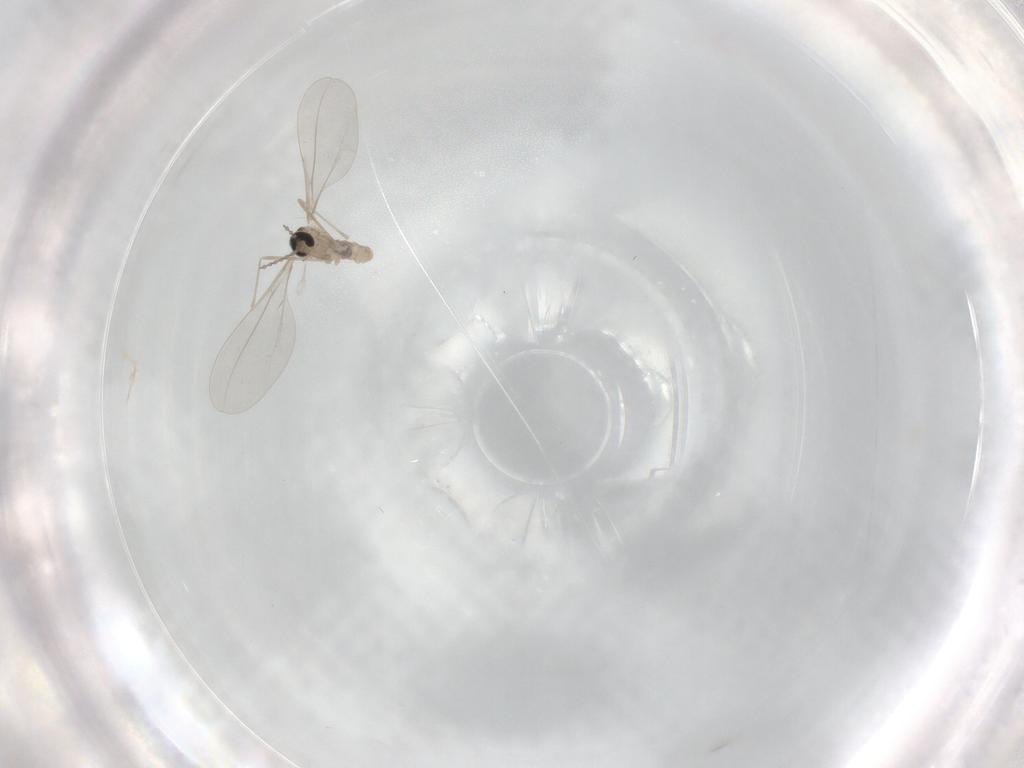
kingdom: Animalia
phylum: Arthropoda
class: Insecta
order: Diptera
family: Cecidomyiidae
